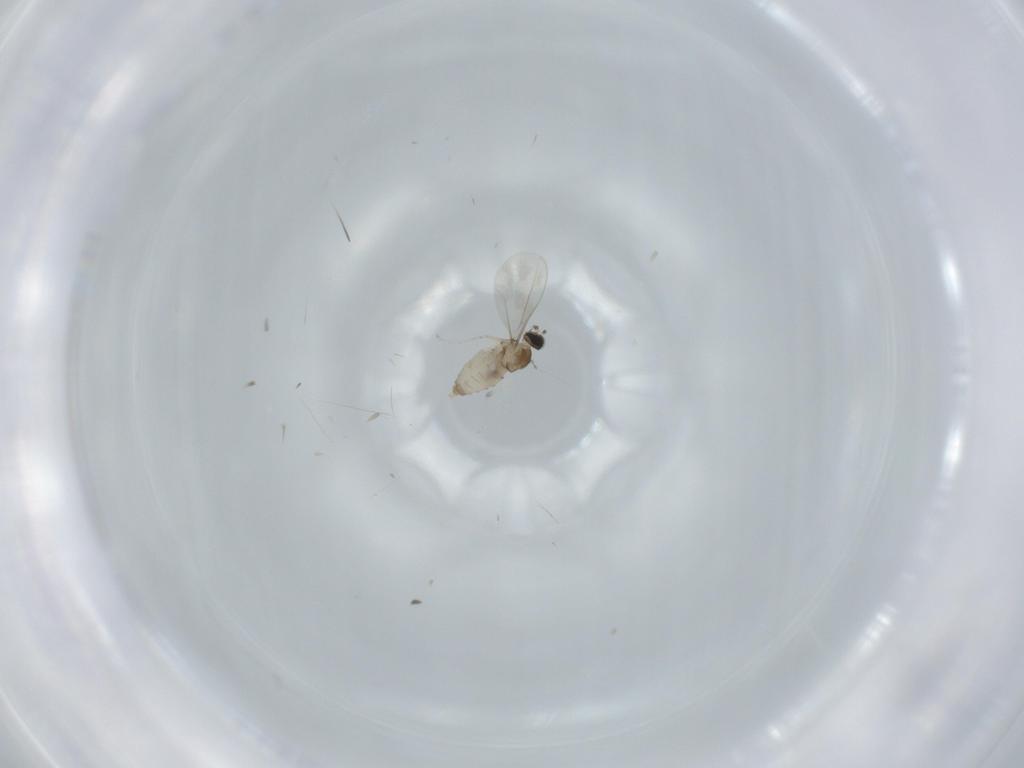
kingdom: Animalia
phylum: Arthropoda
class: Insecta
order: Diptera
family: Cecidomyiidae
